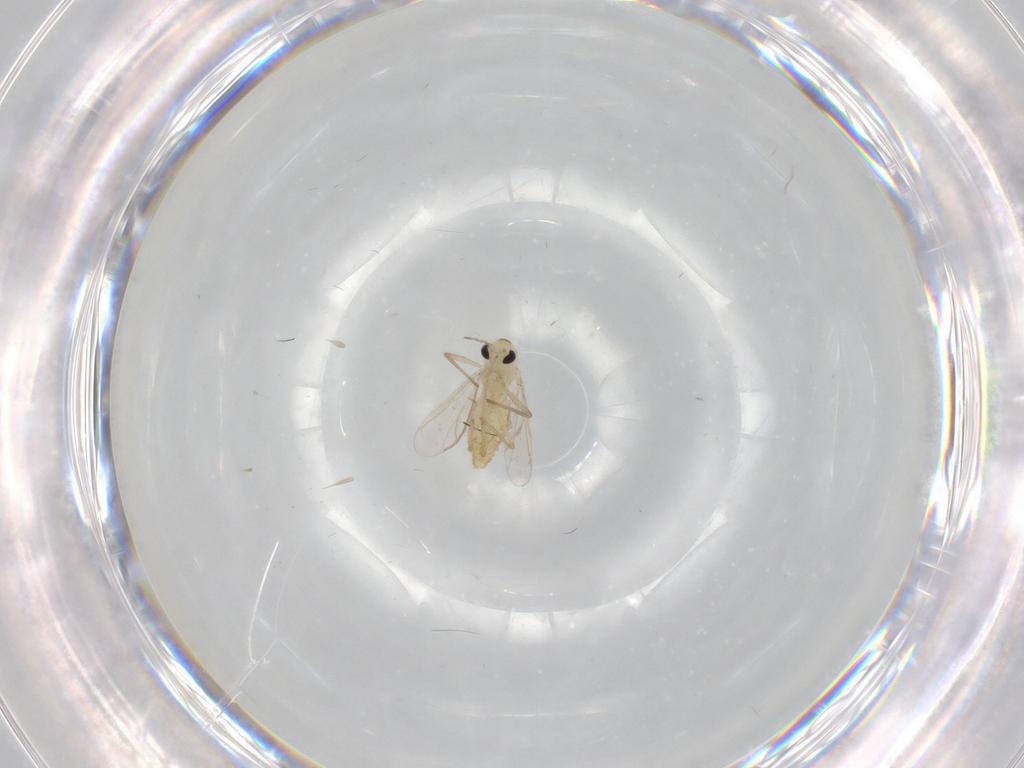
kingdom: Animalia
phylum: Arthropoda
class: Insecta
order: Diptera
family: Chironomidae
